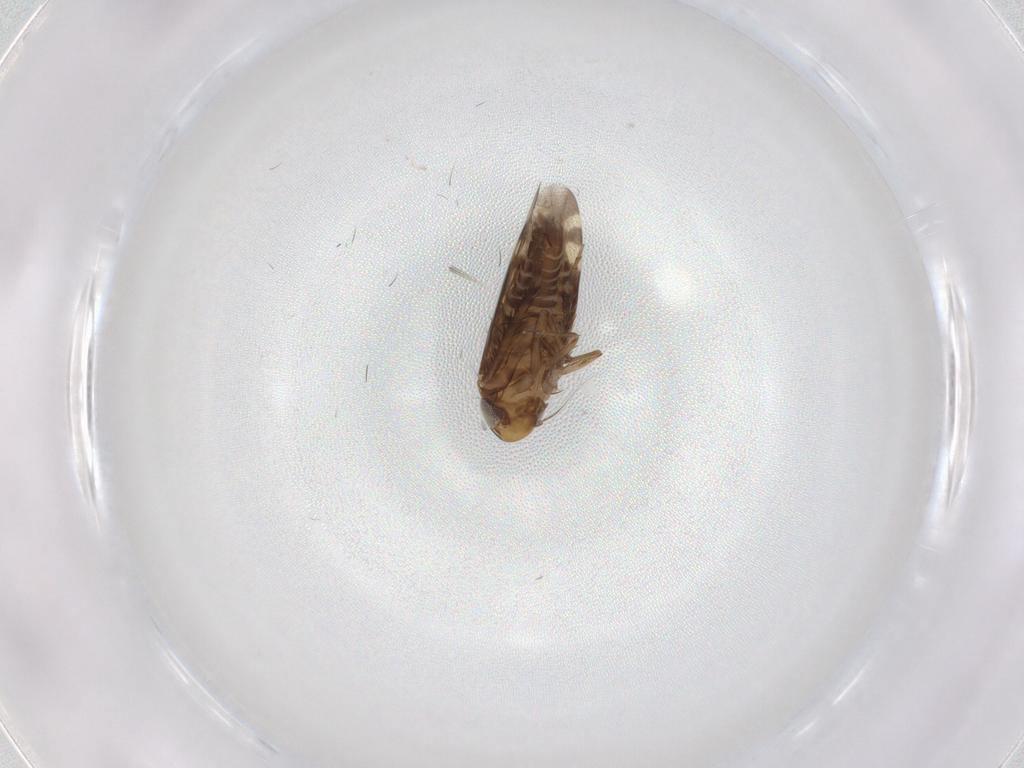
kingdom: Animalia
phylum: Arthropoda
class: Insecta
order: Hemiptera
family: Cicadellidae
